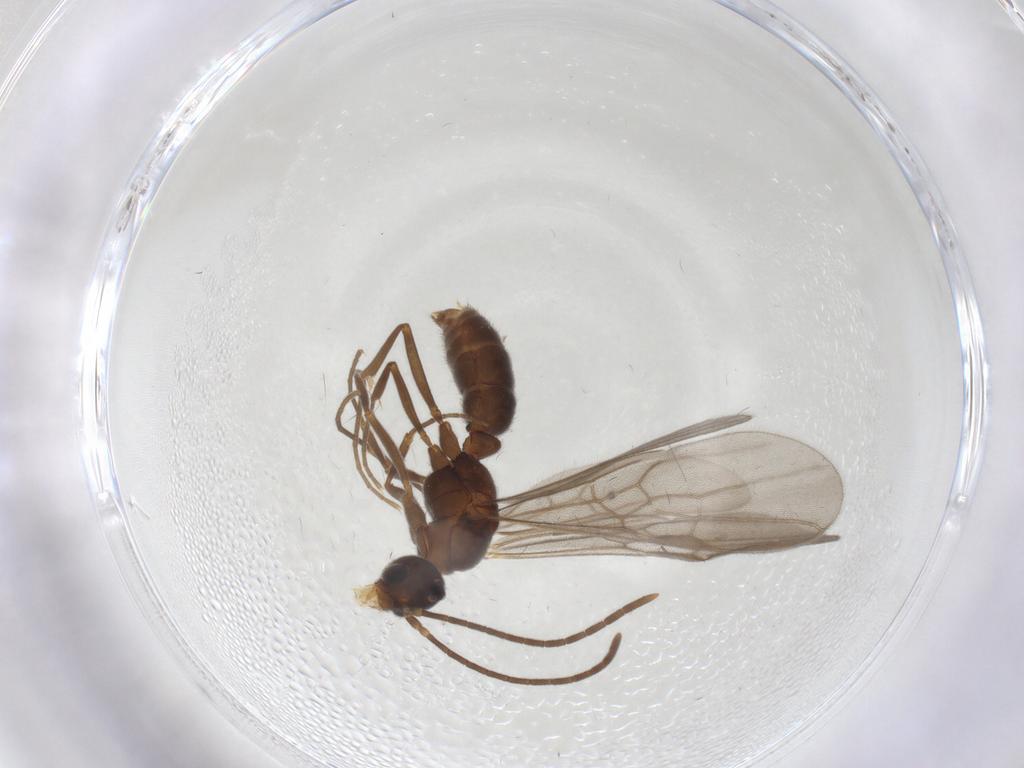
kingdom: Animalia
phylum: Arthropoda
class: Insecta
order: Hymenoptera
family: Formicidae
